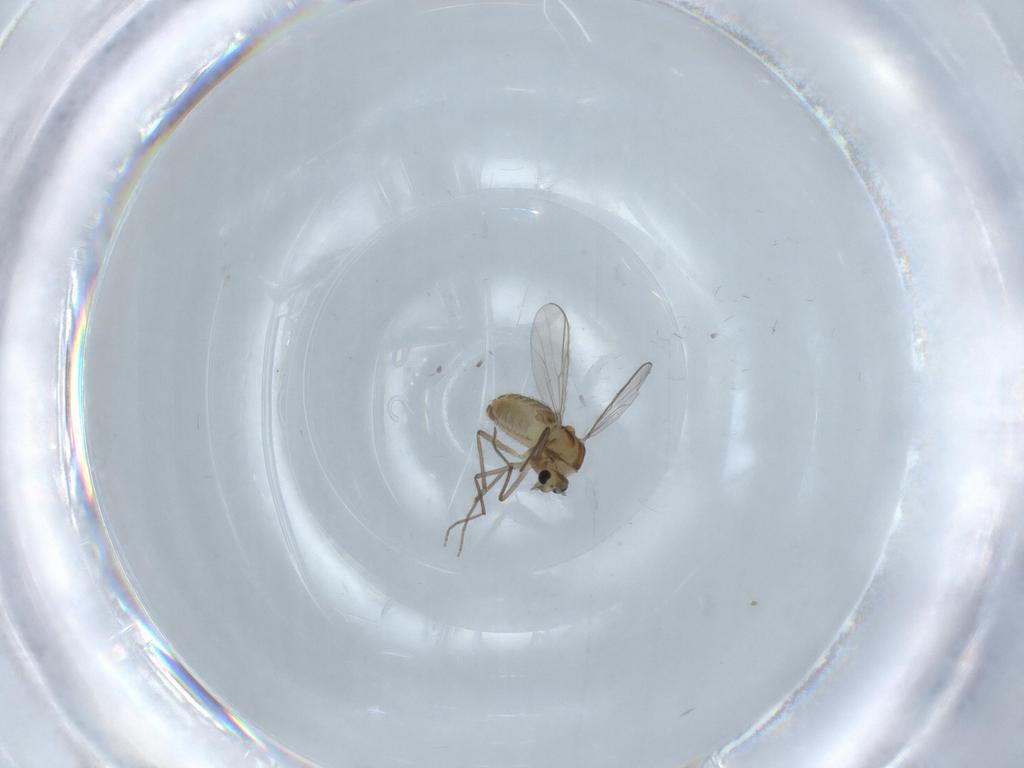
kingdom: Animalia
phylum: Arthropoda
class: Insecta
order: Diptera
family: Chironomidae
